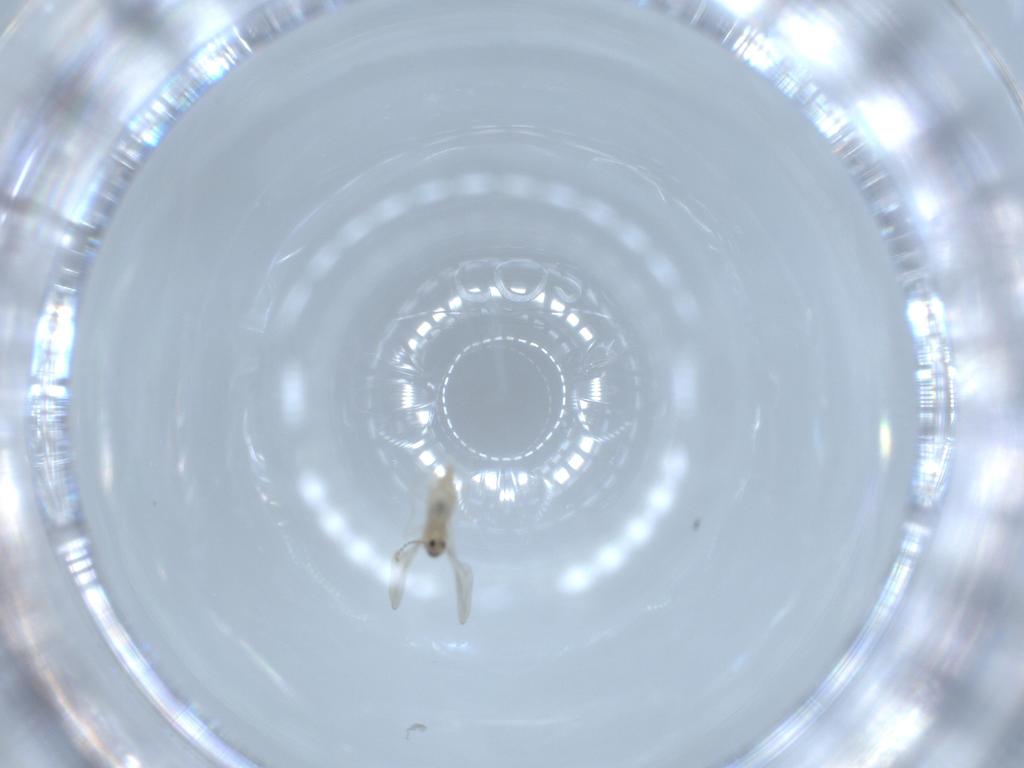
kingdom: Animalia
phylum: Arthropoda
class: Insecta
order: Diptera
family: Cecidomyiidae
